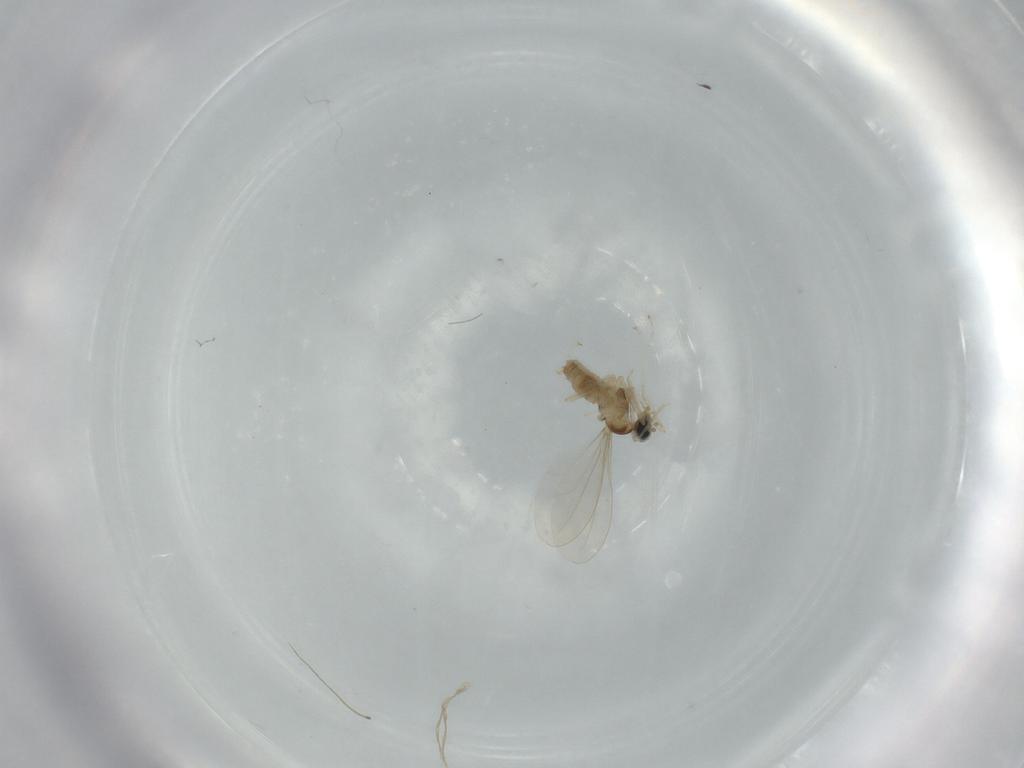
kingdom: Animalia
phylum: Arthropoda
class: Insecta
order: Diptera
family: Cecidomyiidae
